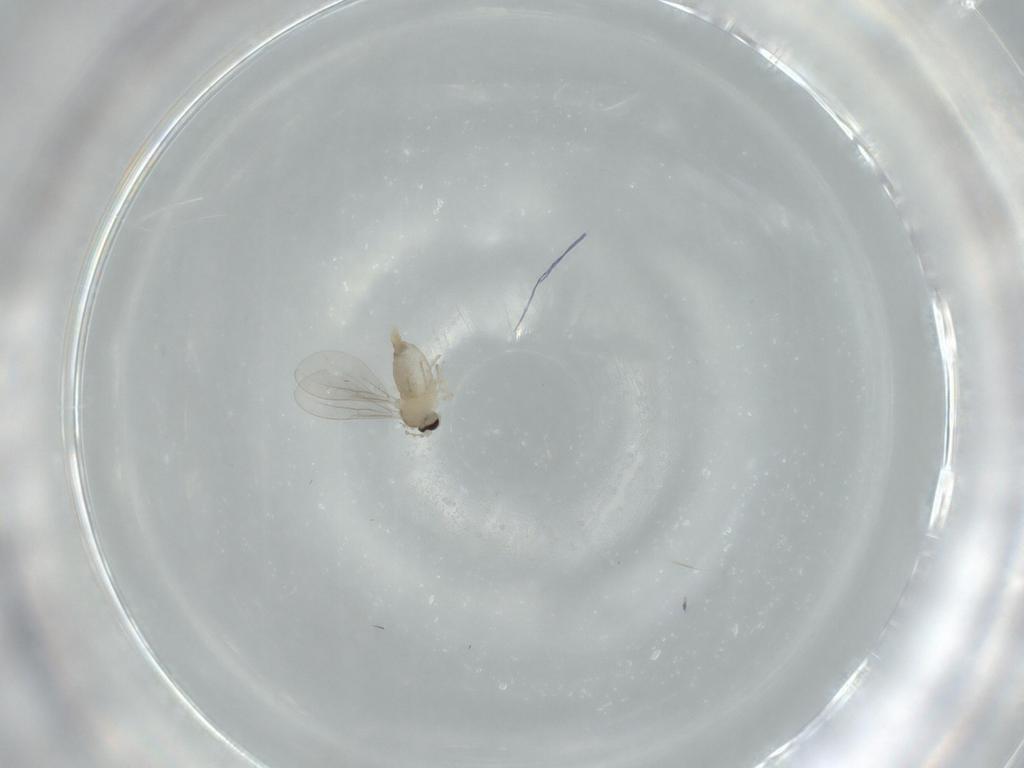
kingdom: Animalia
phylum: Arthropoda
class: Insecta
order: Diptera
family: Cecidomyiidae
